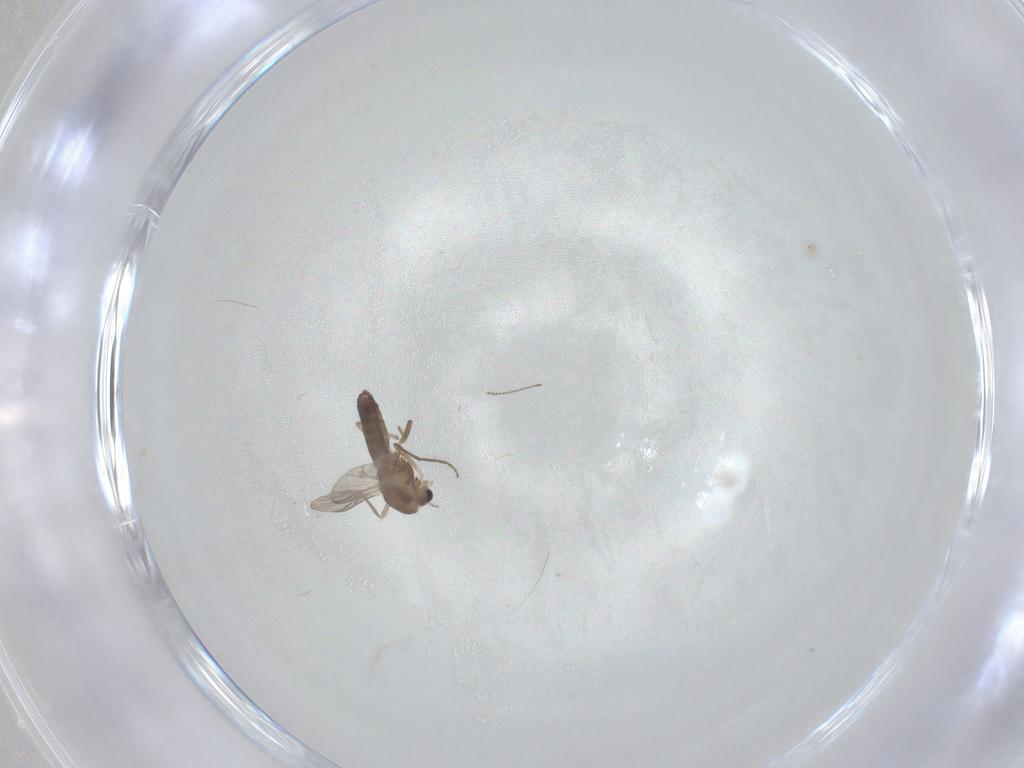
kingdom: Animalia
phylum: Arthropoda
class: Insecta
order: Diptera
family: Chironomidae
